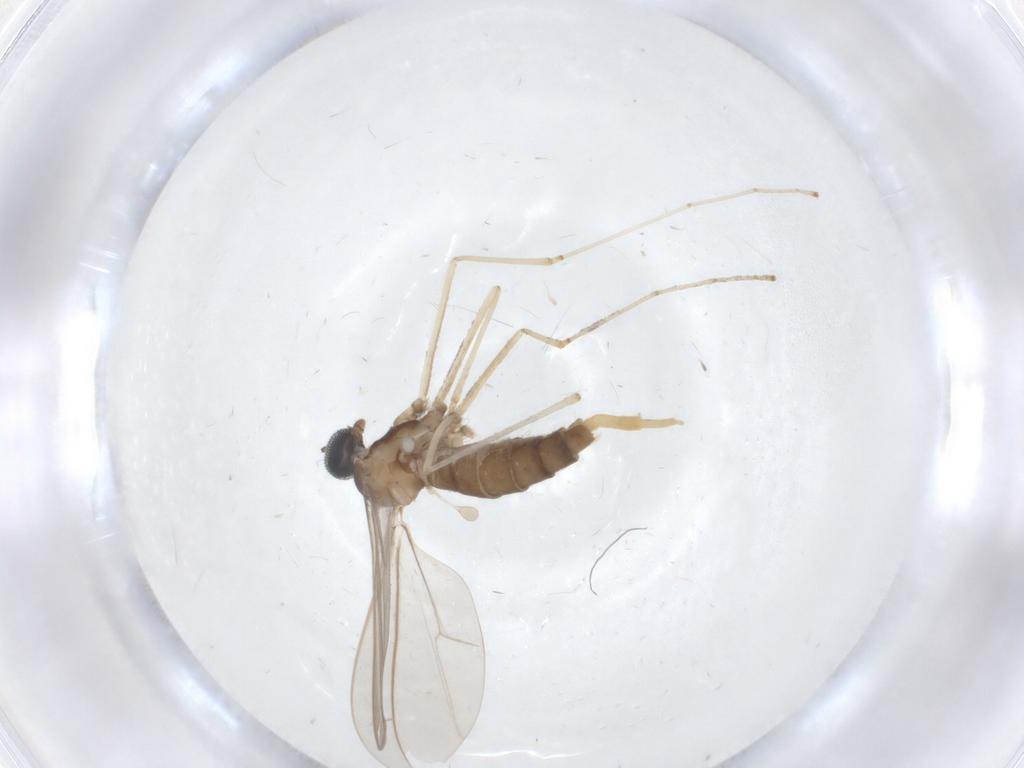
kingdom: Animalia
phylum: Arthropoda
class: Insecta
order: Diptera
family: Cecidomyiidae
